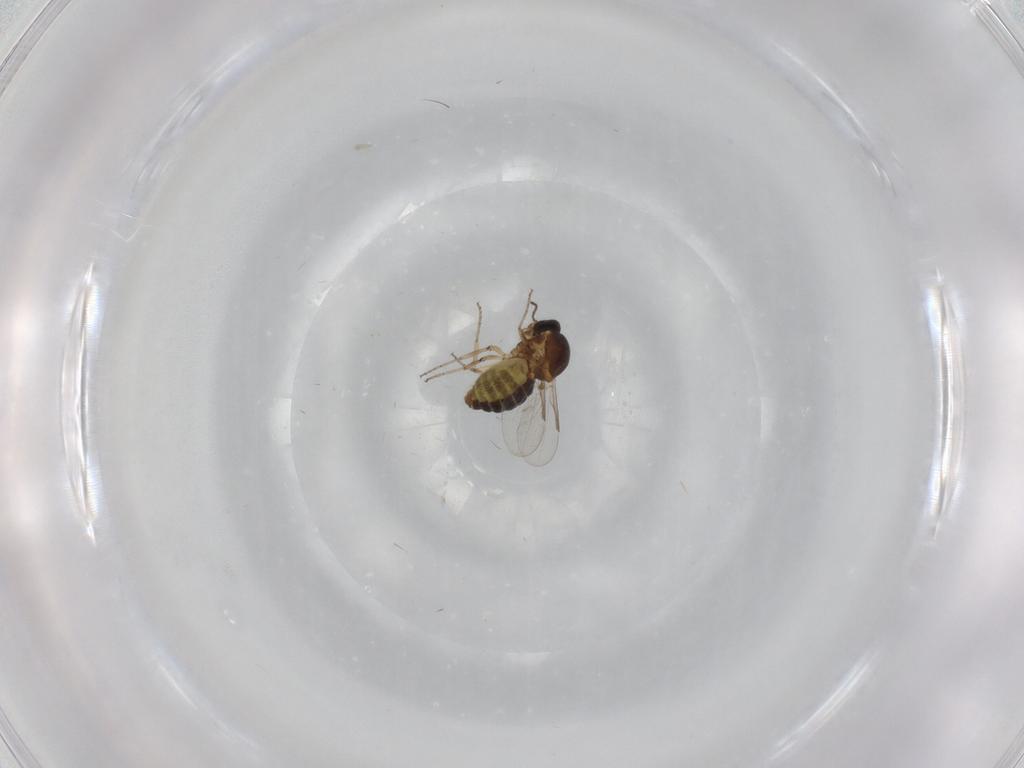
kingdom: Animalia
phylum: Arthropoda
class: Insecta
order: Diptera
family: Ceratopogonidae
